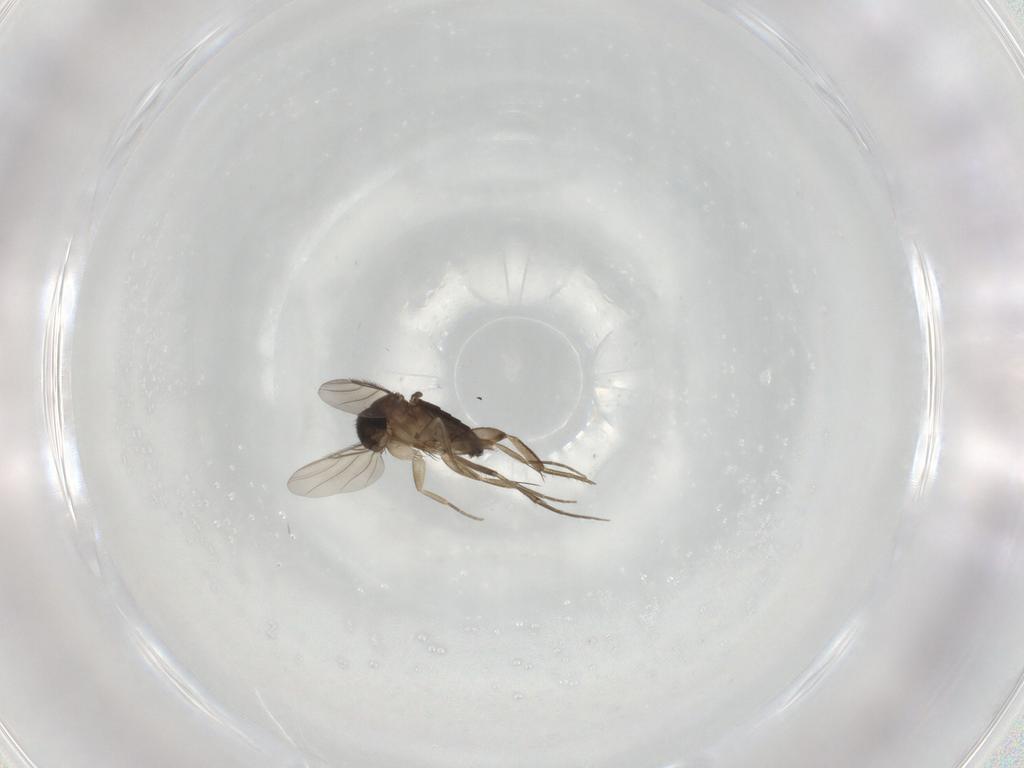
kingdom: Animalia
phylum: Arthropoda
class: Insecta
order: Diptera
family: Phoridae
